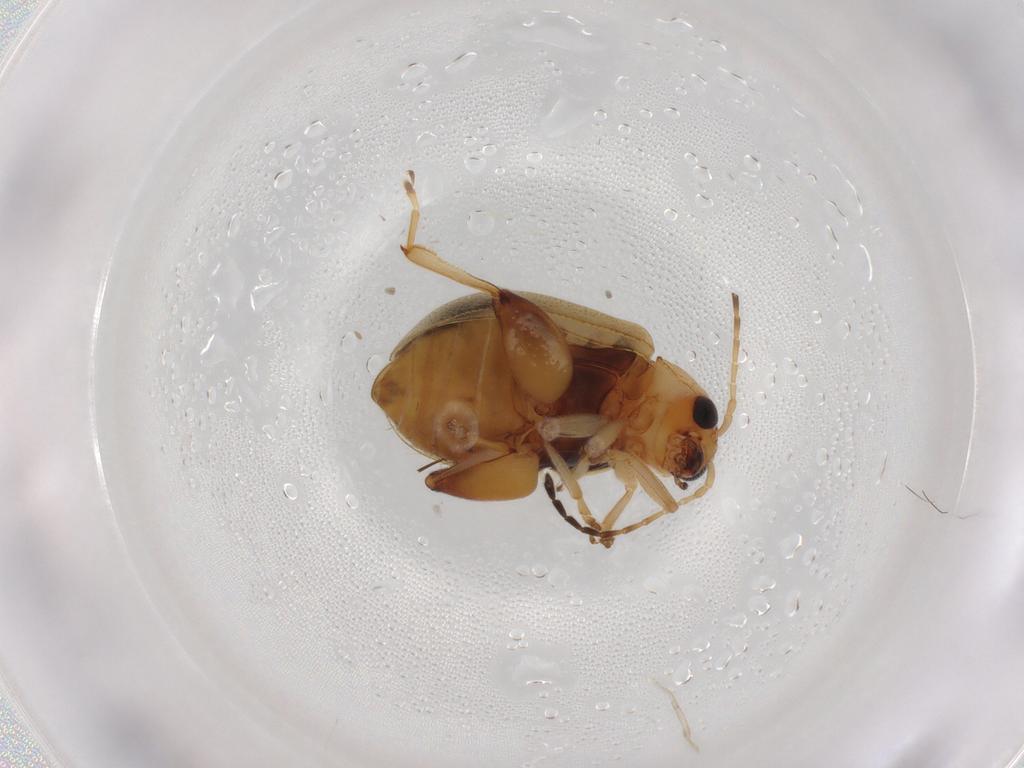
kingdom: Animalia
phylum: Arthropoda
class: Insecta
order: Coleoptera
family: Chrysomelidae
